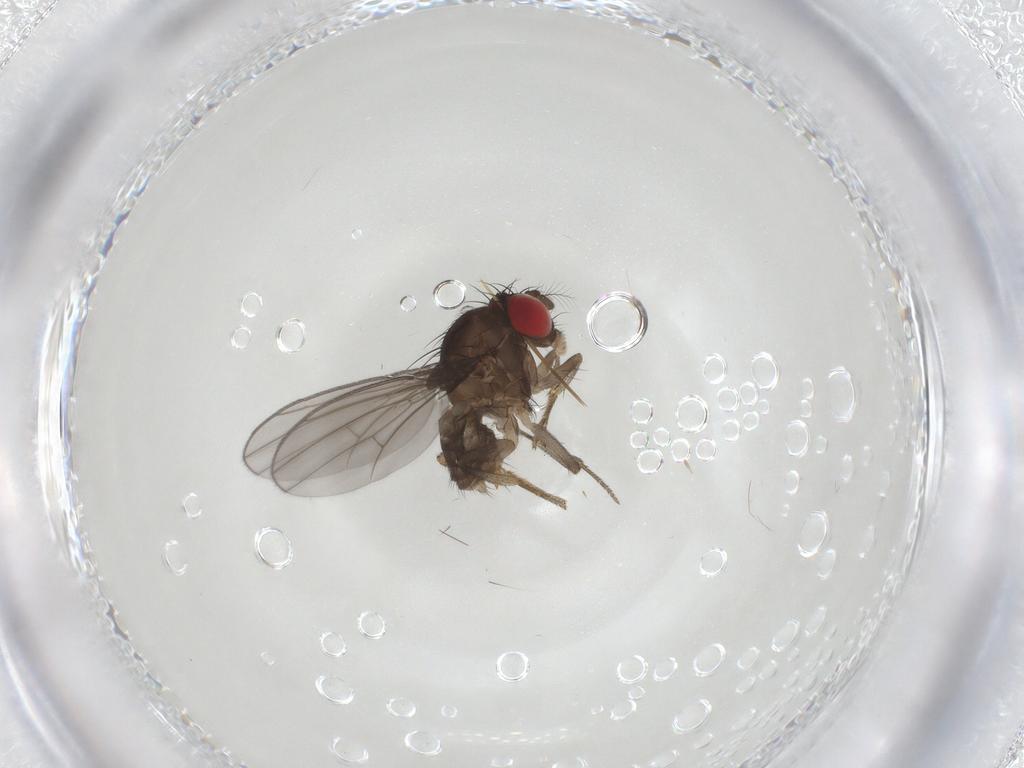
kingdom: Animalia
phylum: Arthropoda
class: Insecta
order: Diptera
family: Drosophilidae
